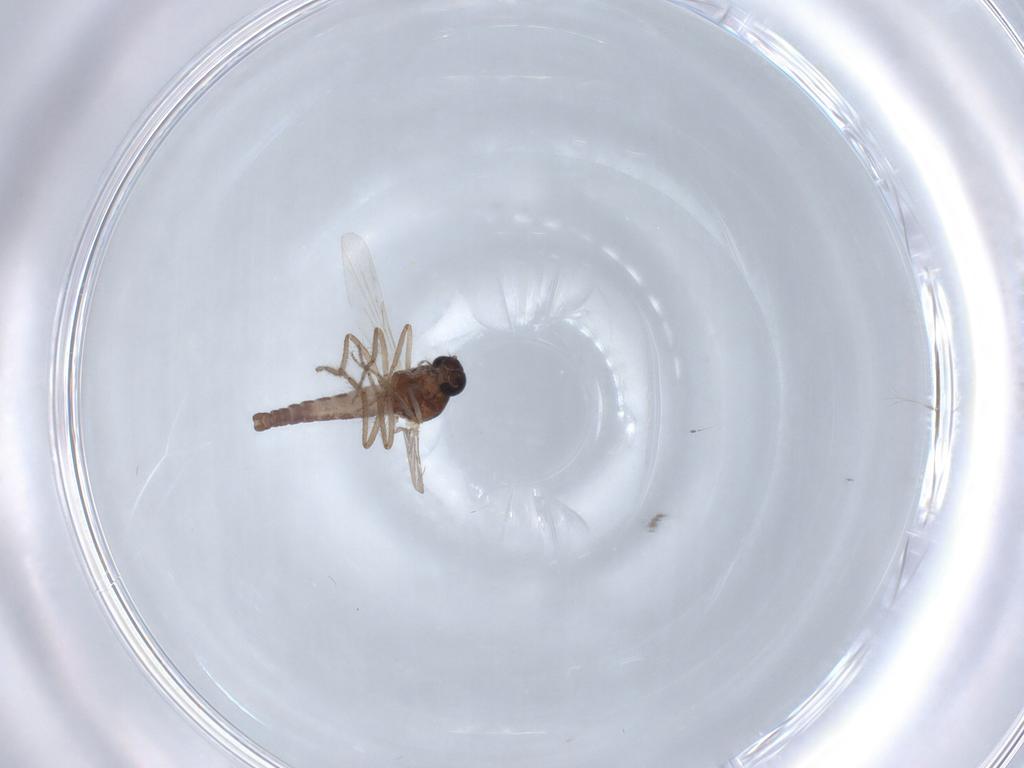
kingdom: Animalia
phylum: Arthropoda
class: Insecta
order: Diptera
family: Ceratopogonidae
